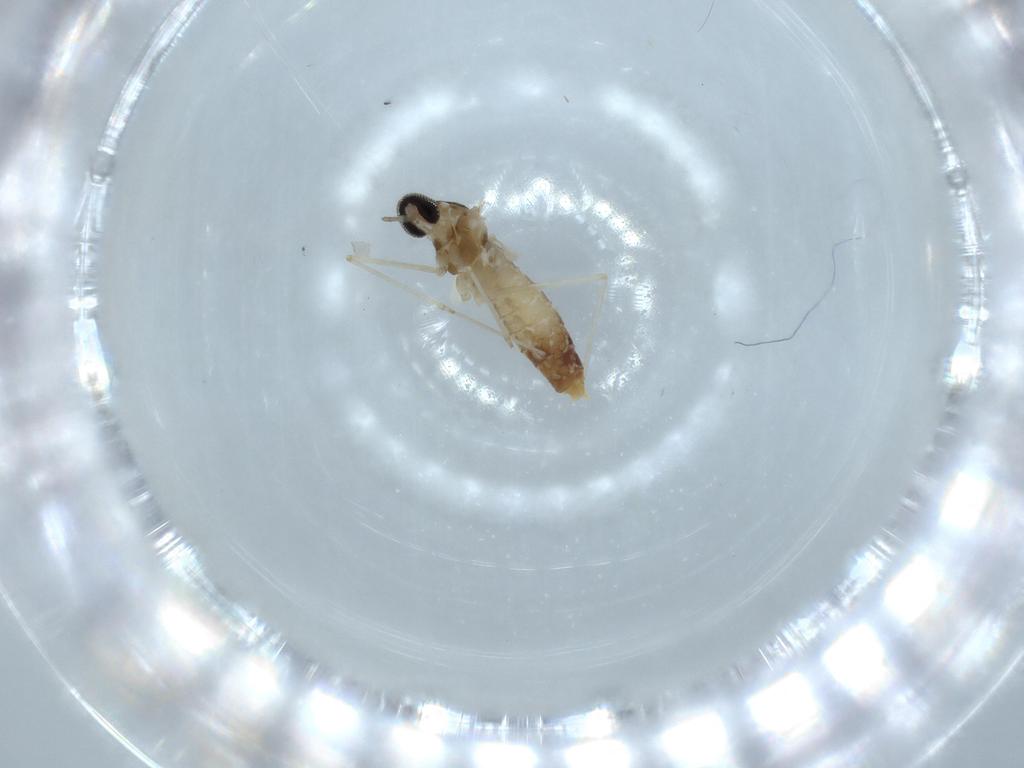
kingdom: Animalia
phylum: Arthropoda
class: Insecta
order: Diptera
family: Cecidomyiidae
